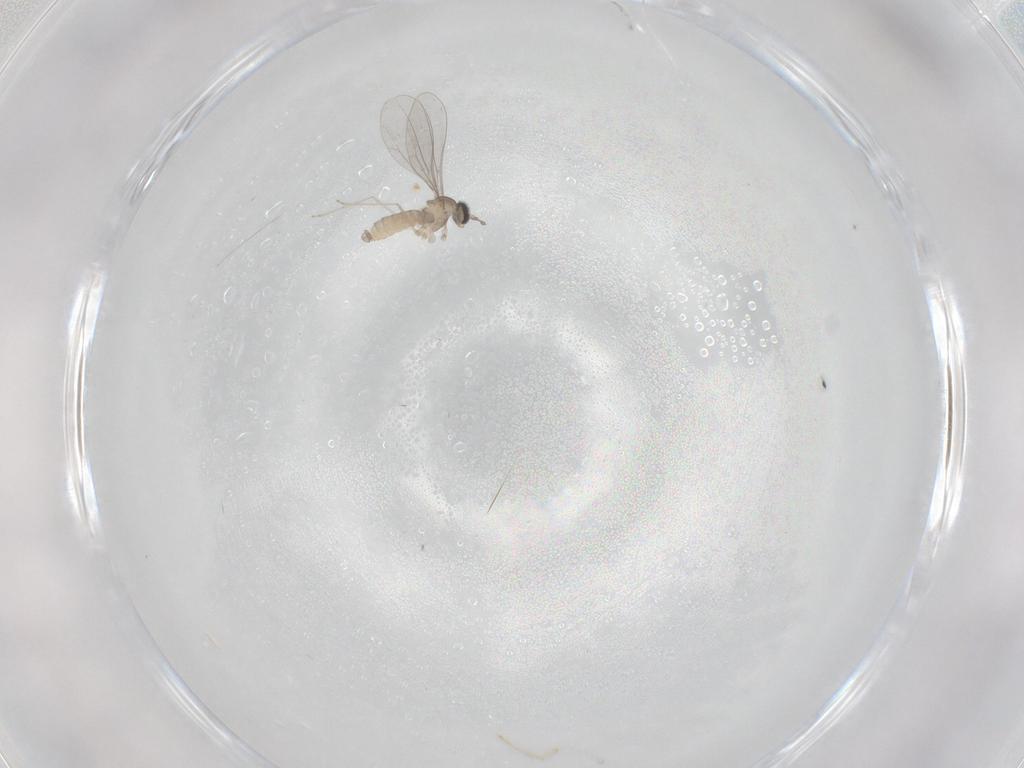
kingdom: Animalia
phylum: Arthropoda
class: Insecta
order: Diptera
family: Cecidomyiidae
